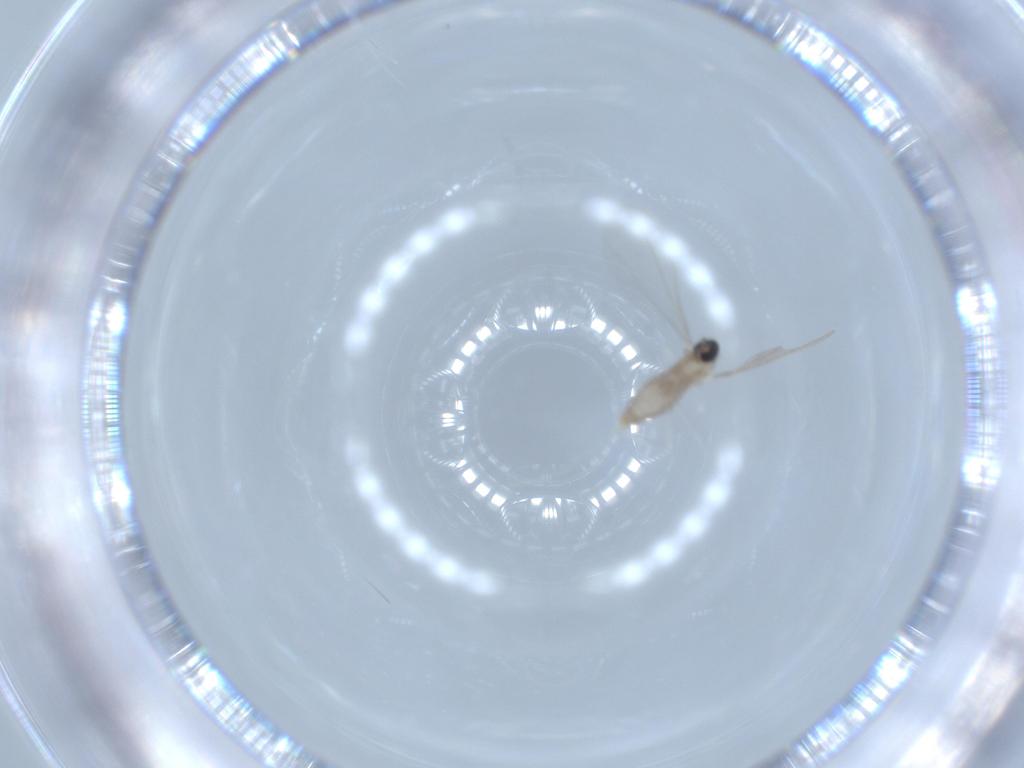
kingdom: Animalia
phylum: Arthropoda
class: Insecta
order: Diptera
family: Cecidomyiidae
